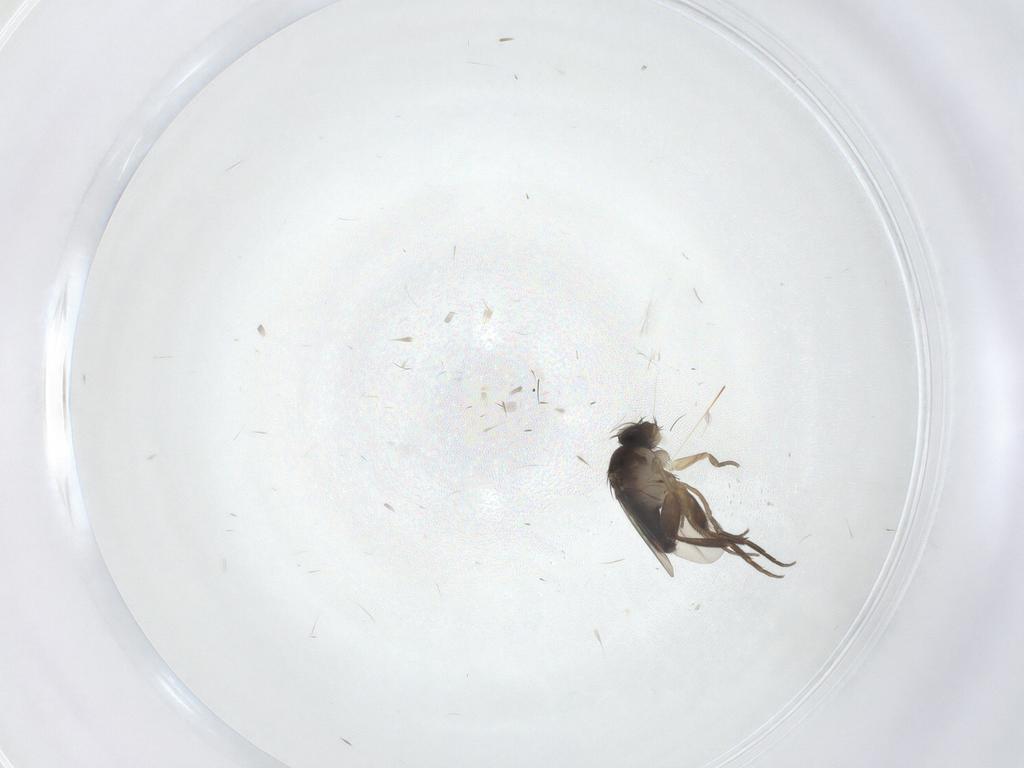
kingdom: Animalia
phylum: Arthropoda
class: Insecta
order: Diptera
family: Phoridae
